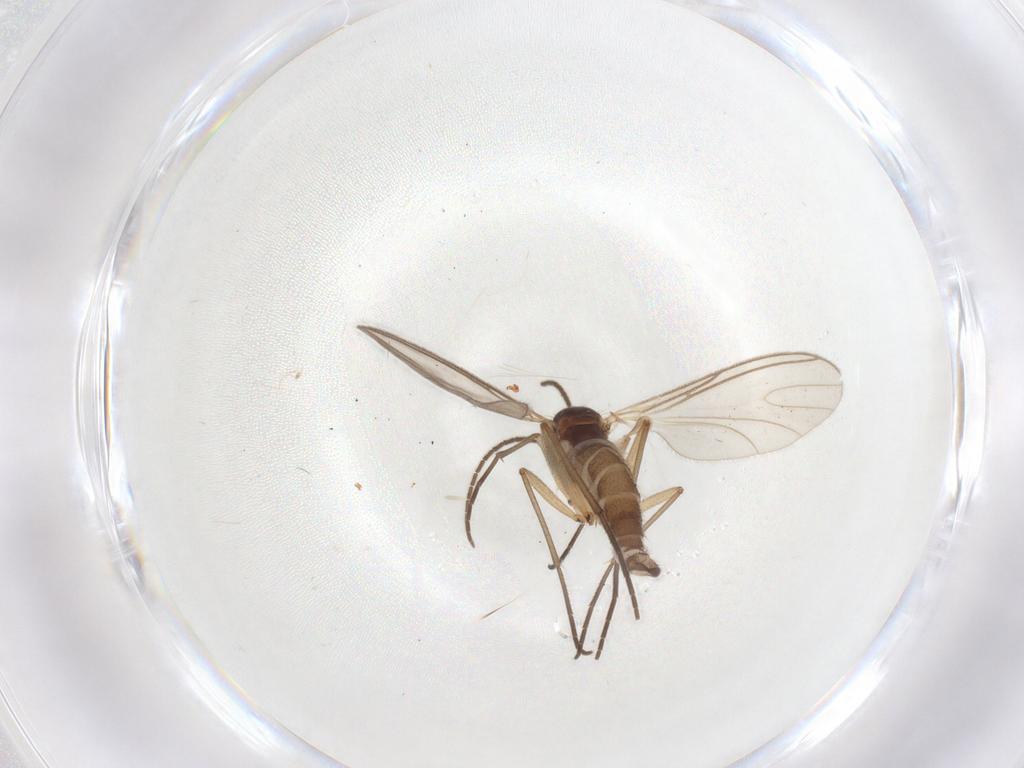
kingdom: Animalia
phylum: Arthropoda
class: Insecta
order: Diptera
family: Sciaridae
